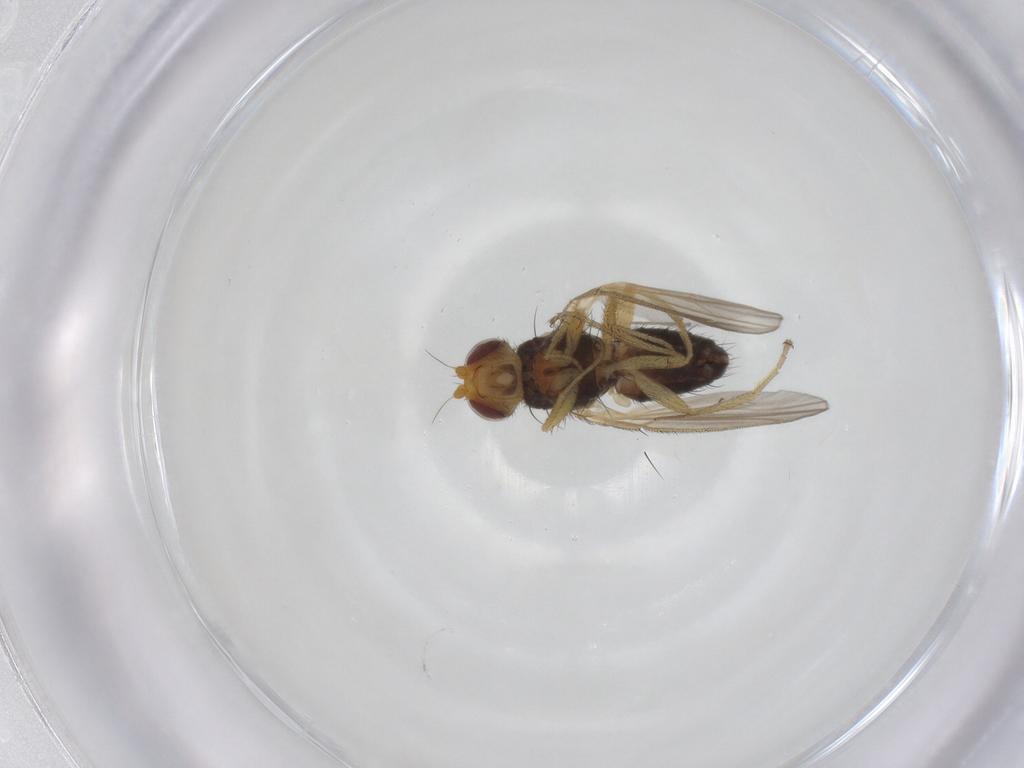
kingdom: Animalia
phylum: Arthropoda
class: Insecta
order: Diptera
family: Heleomyzidae
